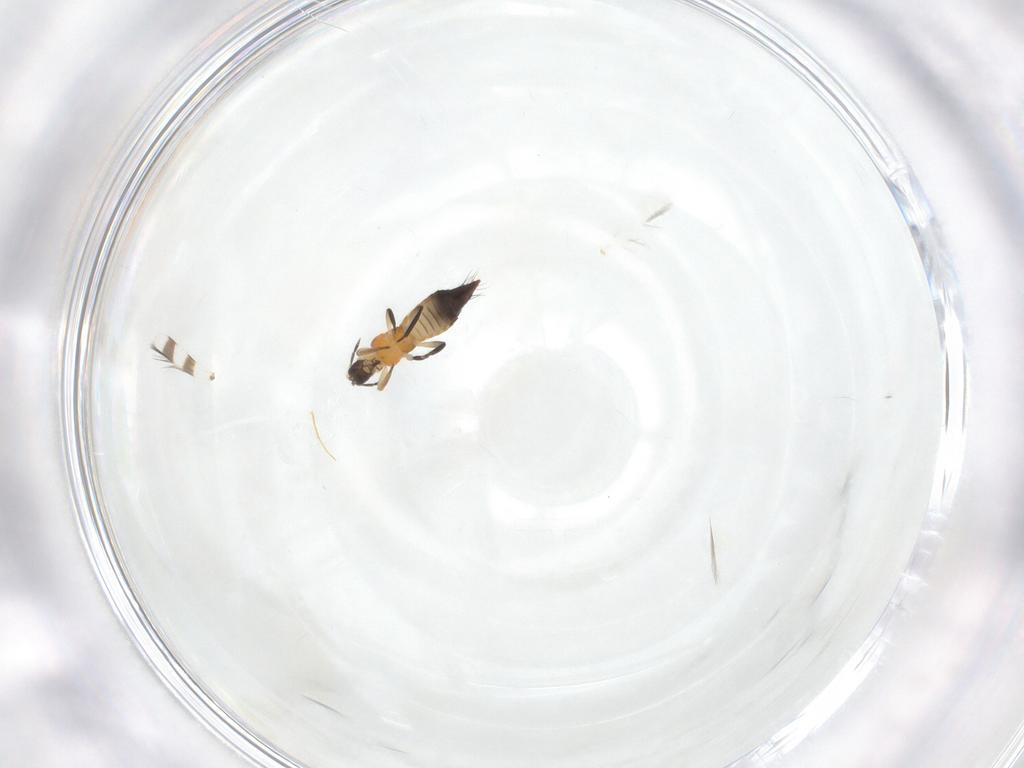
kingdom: Animalia
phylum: Arthropoda
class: Insecta
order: Thysanoptera
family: Aeolothripidae
